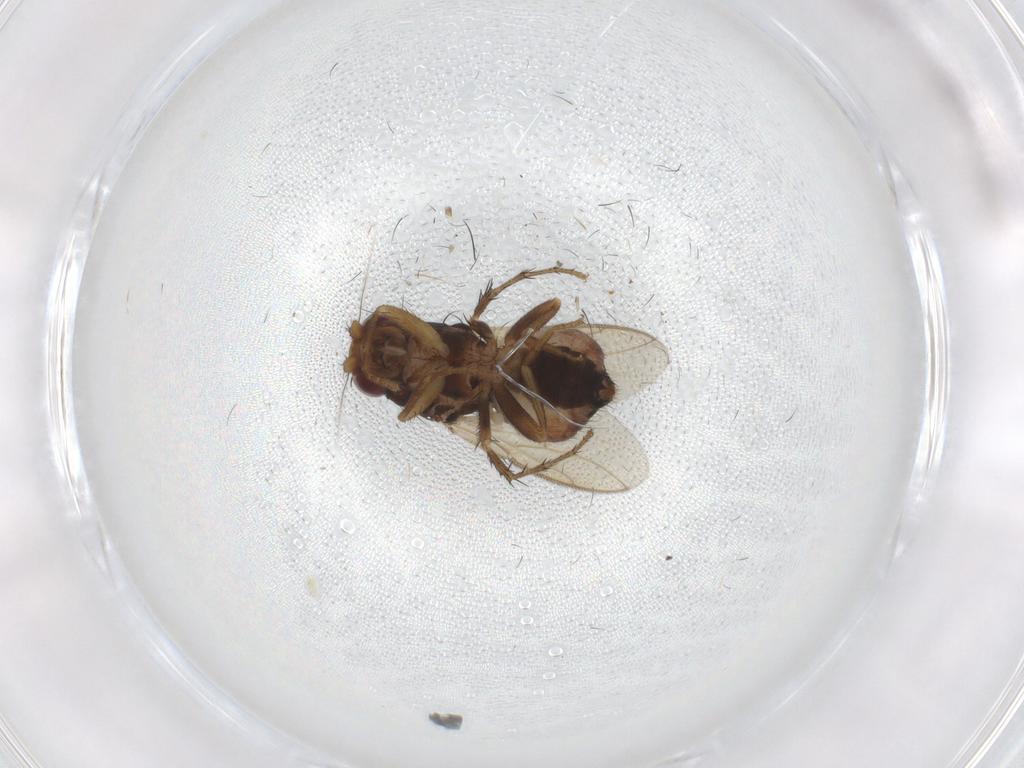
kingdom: Animalia
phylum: Arthropoda
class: Insecta
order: Diptera
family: Sphaeroceridae
